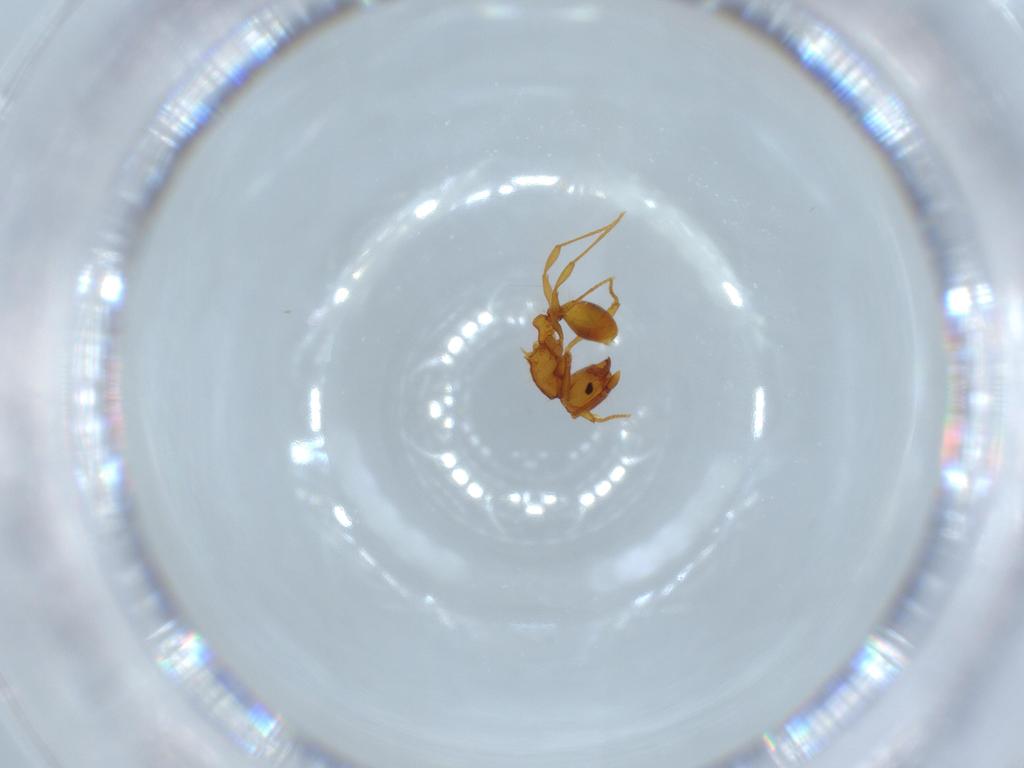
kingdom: Animalia
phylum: Arthropoda
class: Insecta
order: Hymenoptera
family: Formicidae
